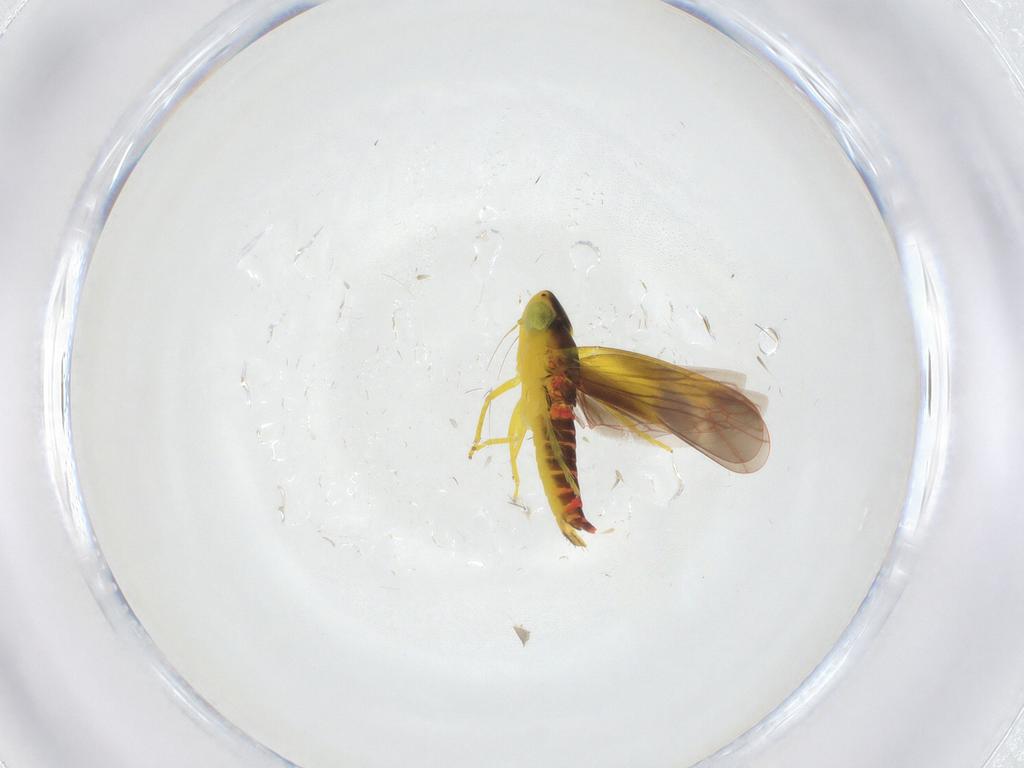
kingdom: Animalia
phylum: Arthropoda
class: Insecta
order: Hemiptera
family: Cicadellidae
